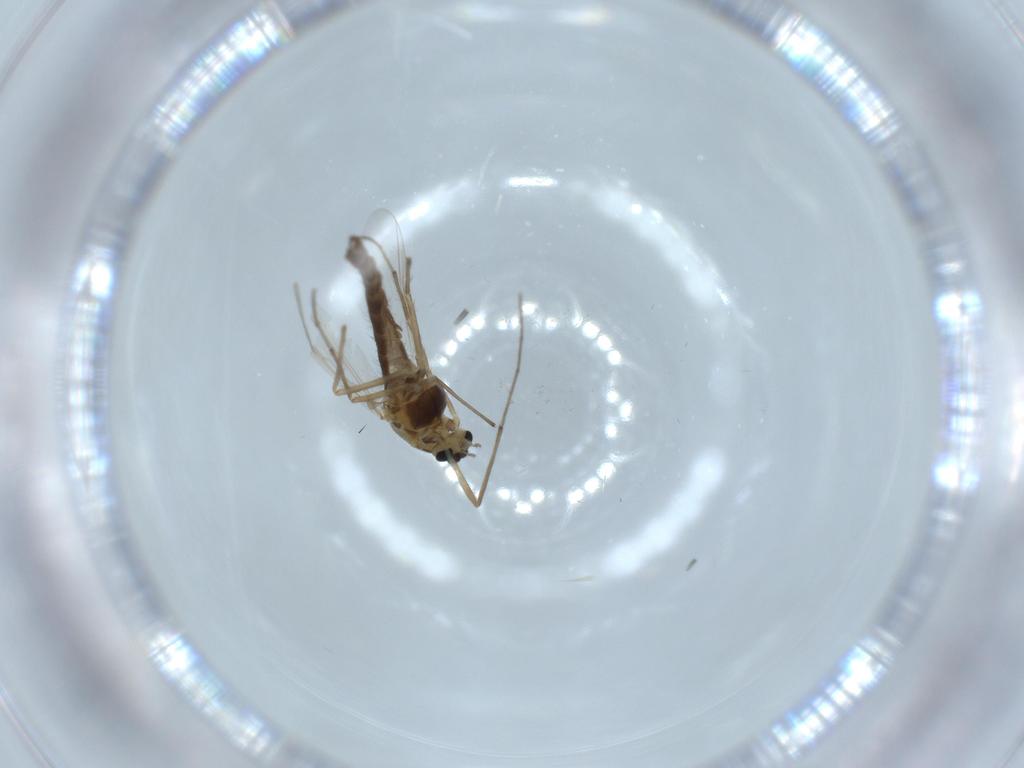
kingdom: Animalia
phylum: Arthropoda
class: Insecta
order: Diptera
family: Chironomidae
